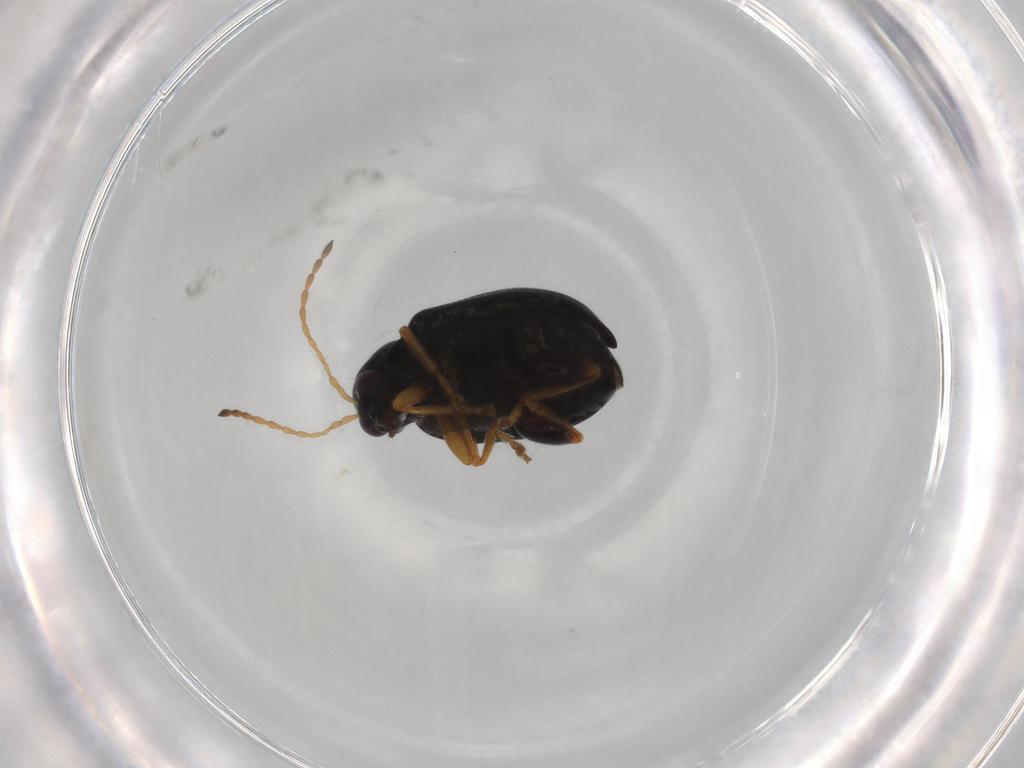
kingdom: Animalia
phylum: Arthropoda
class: Insecta
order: Coleoptera
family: Chrysomelidae
